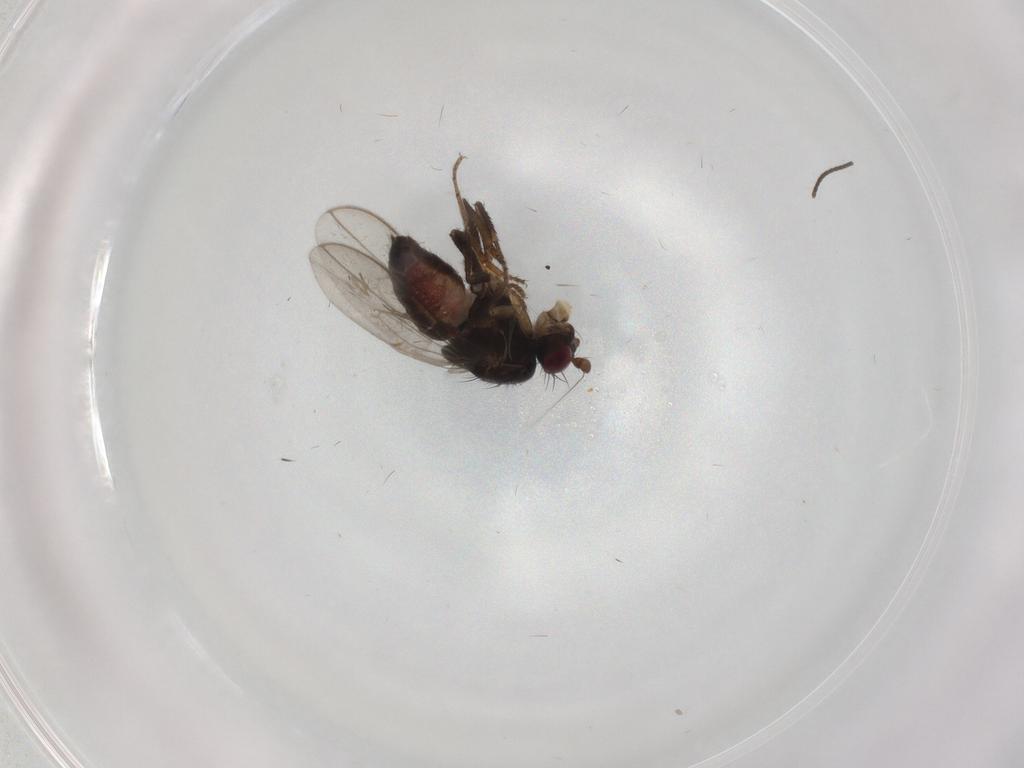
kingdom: Animalia
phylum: Arthropoda
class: Insecta
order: Diptera
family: Sphaeroceridae
